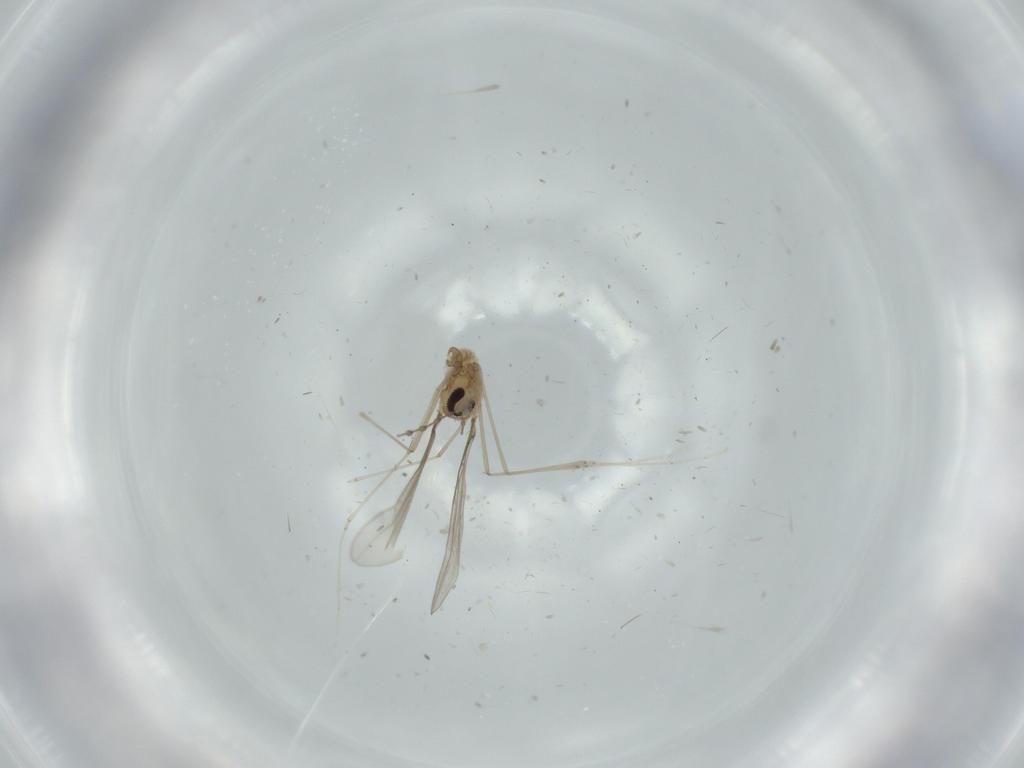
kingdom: Animalia
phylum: Arthropoda
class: Insecta
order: Diptera
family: Cecidomyiidae
